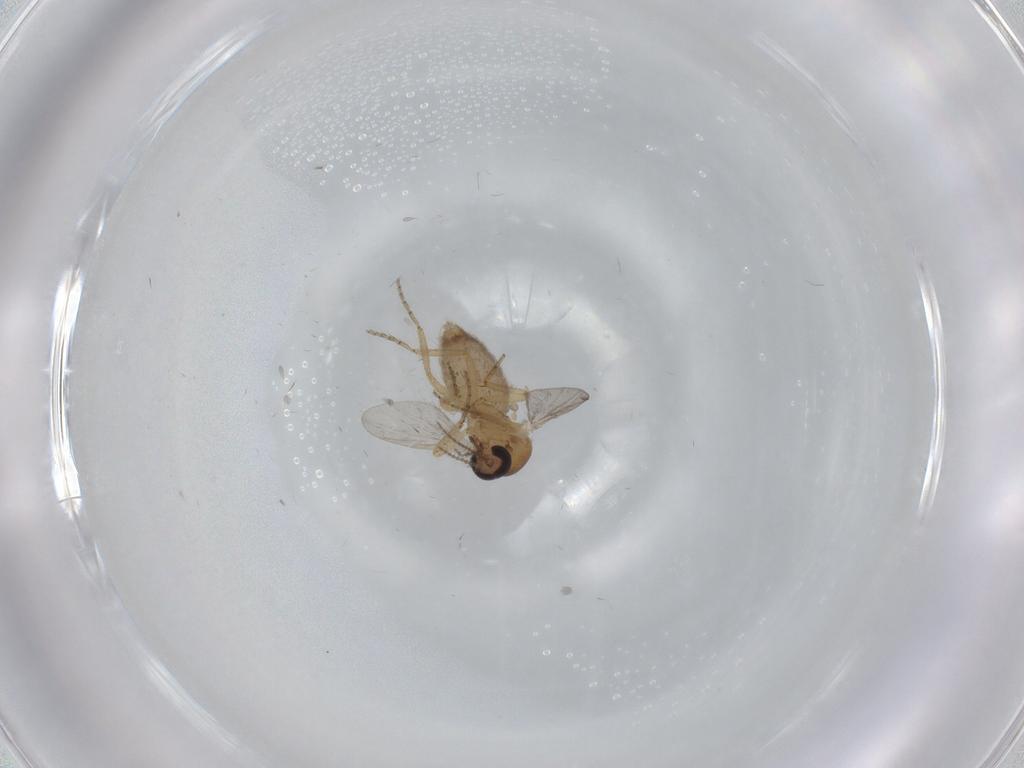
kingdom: Animalia
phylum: Arthropoda
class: Insecta
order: Diptera
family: Ceratopogonidae
